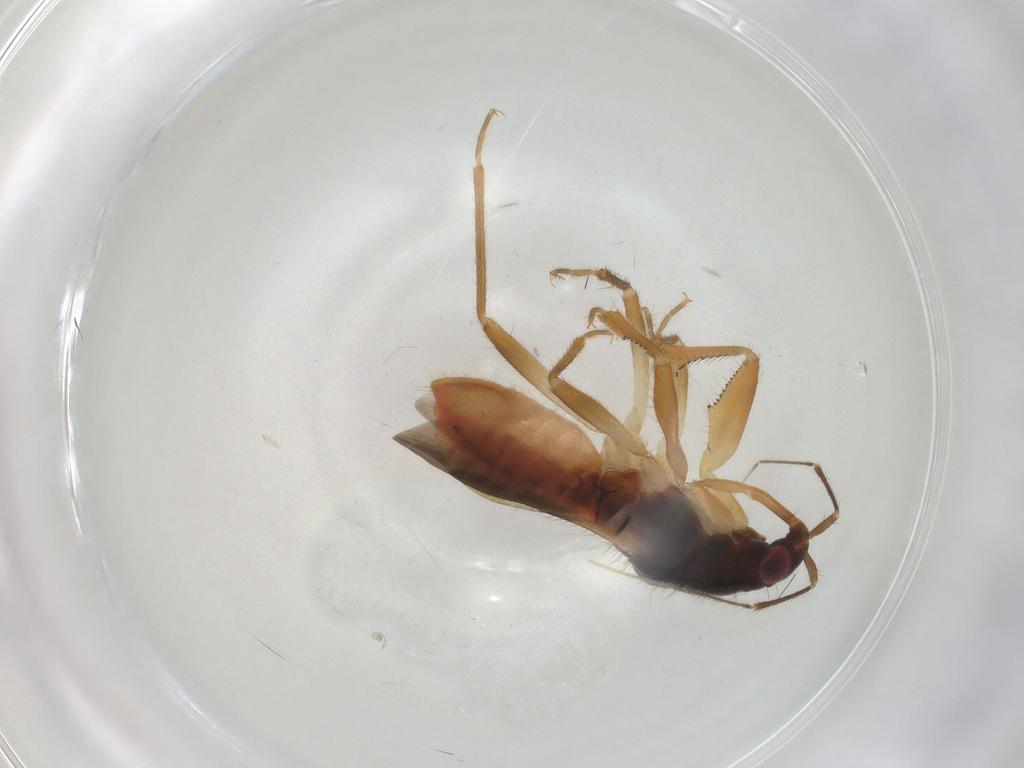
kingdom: Animalia
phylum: Arthropoda
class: Insecta
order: Hemiptera
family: Nabidae
